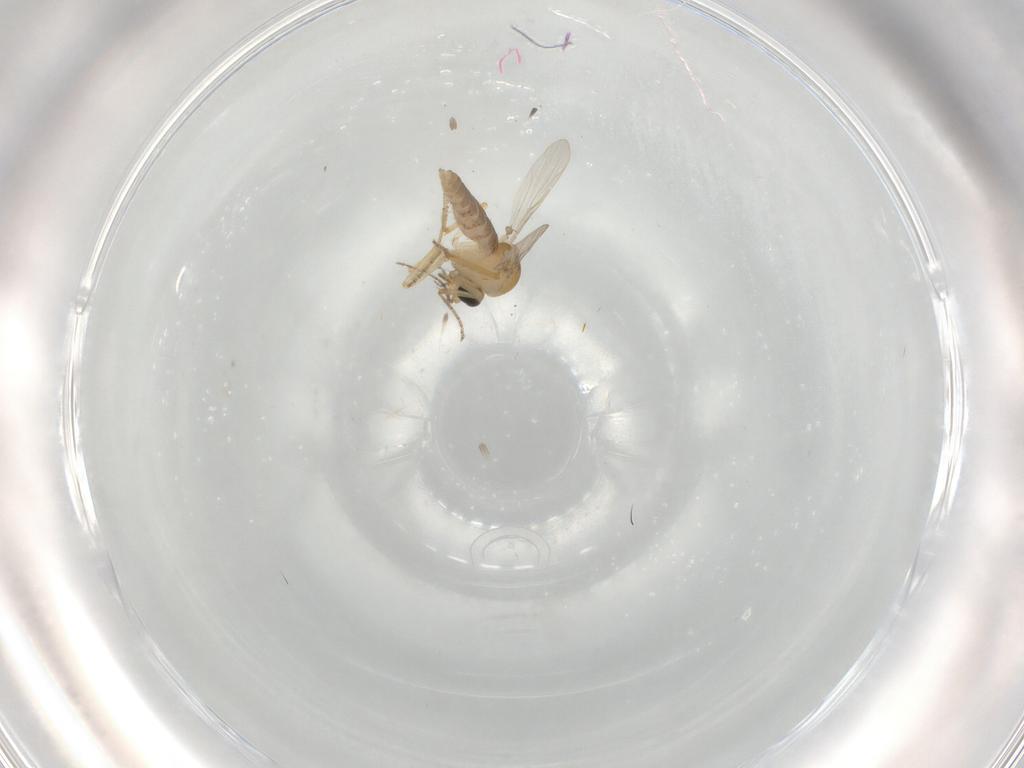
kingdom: Animalia
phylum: Arthropoda
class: Insecta
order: Diptera
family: Ceratopogonidae
